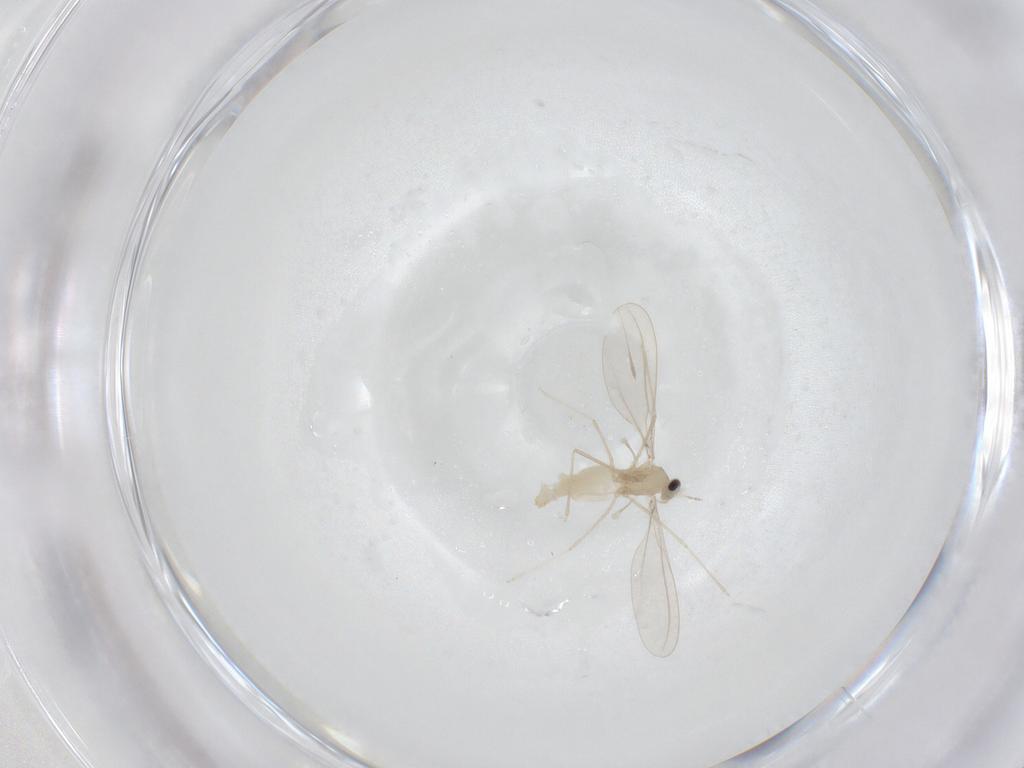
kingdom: Animalia
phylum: Arthropoda
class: Insecta
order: Diptera
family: Cecidomyiidae
